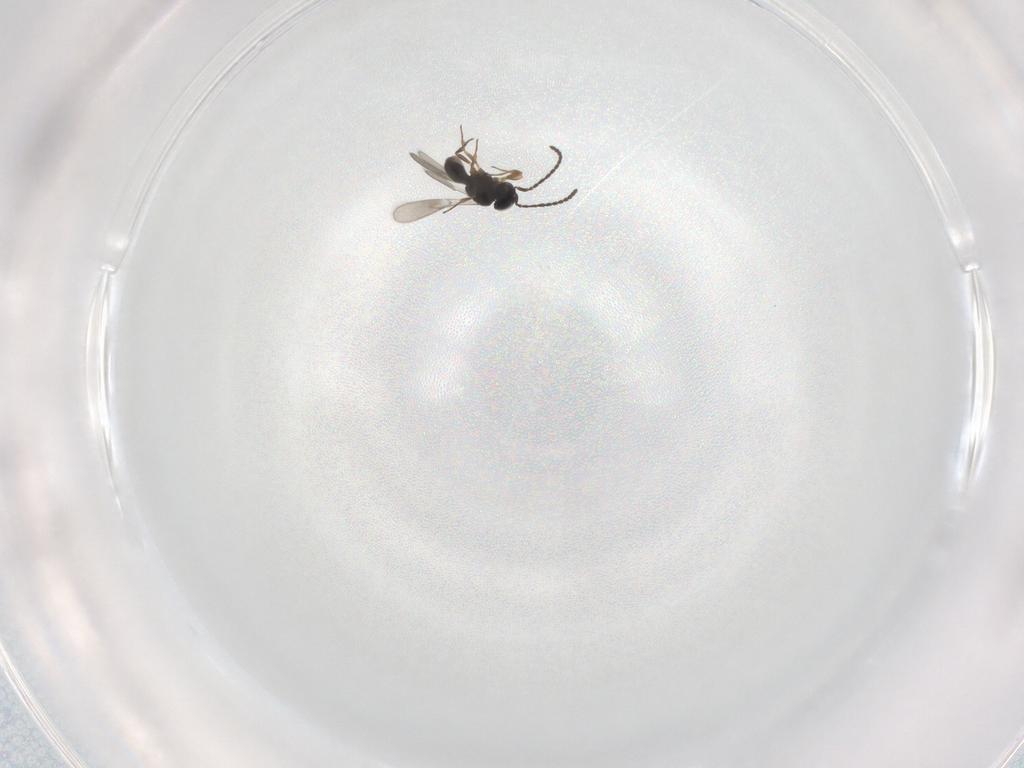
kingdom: Animalia
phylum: Arthropoda
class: Insecta
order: Hymenoptera
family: Scelionidae
